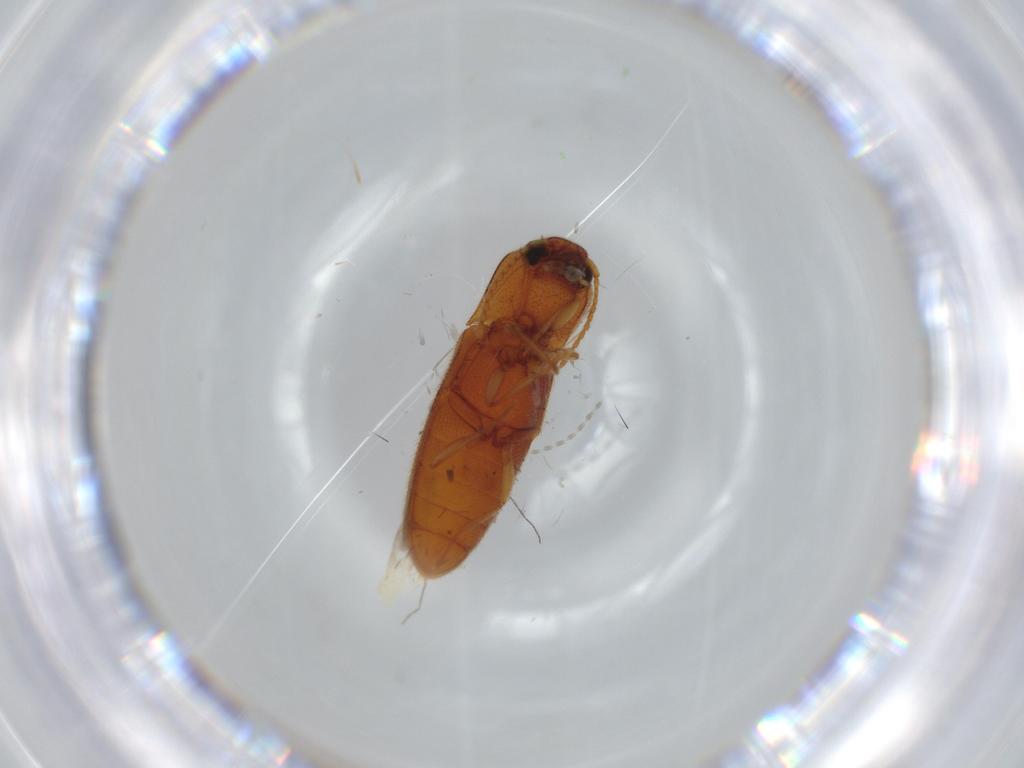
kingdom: Animalia
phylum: Arthropoda
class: Insecta
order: Coleoptera
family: Elateridae
